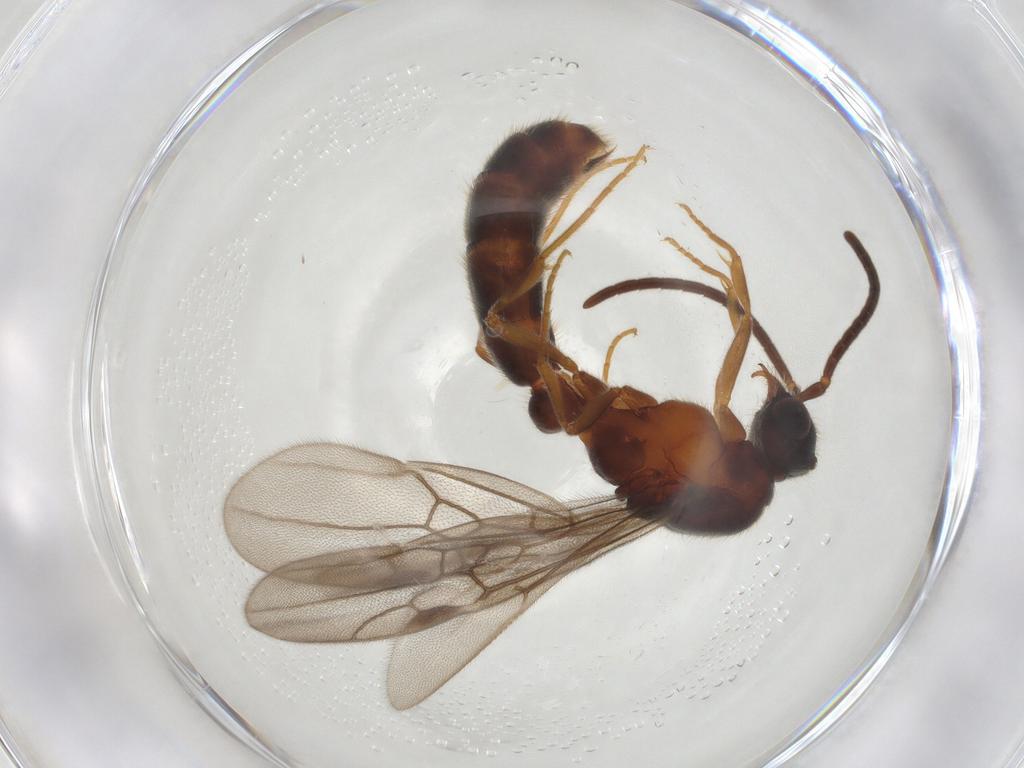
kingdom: Animalia
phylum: Arthropoda
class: Insecta
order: Hymenoptera
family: Formicidae
